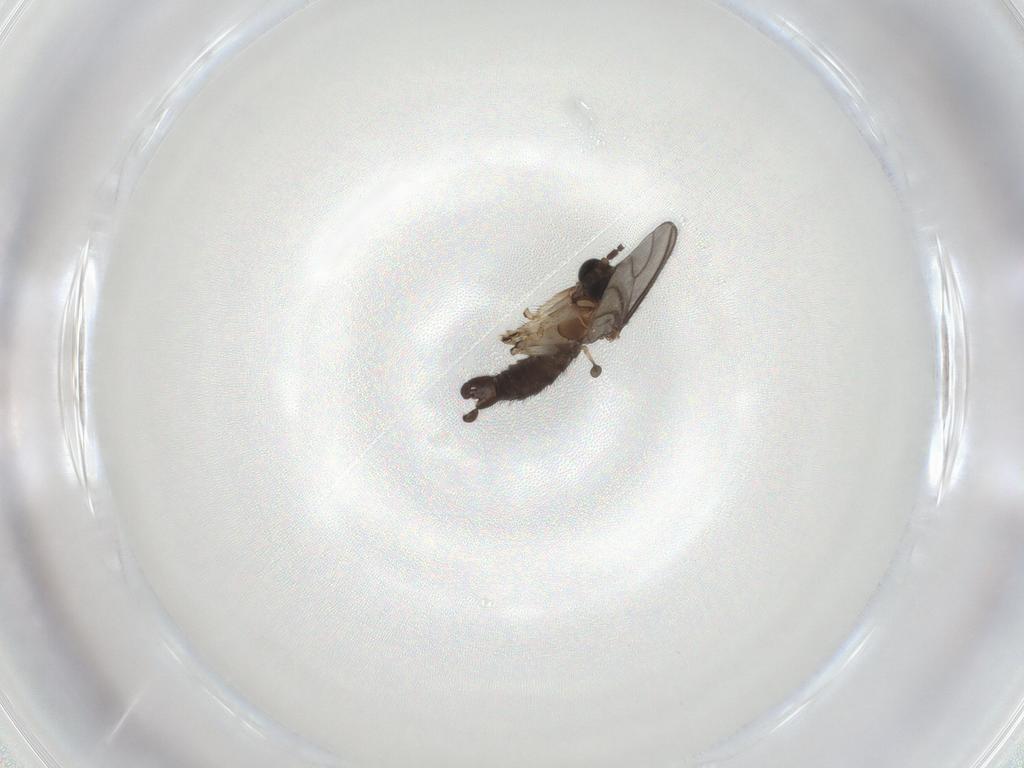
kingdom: Animalia
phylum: Arthropoda
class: Insecta
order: Diptera
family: Sciaridae
